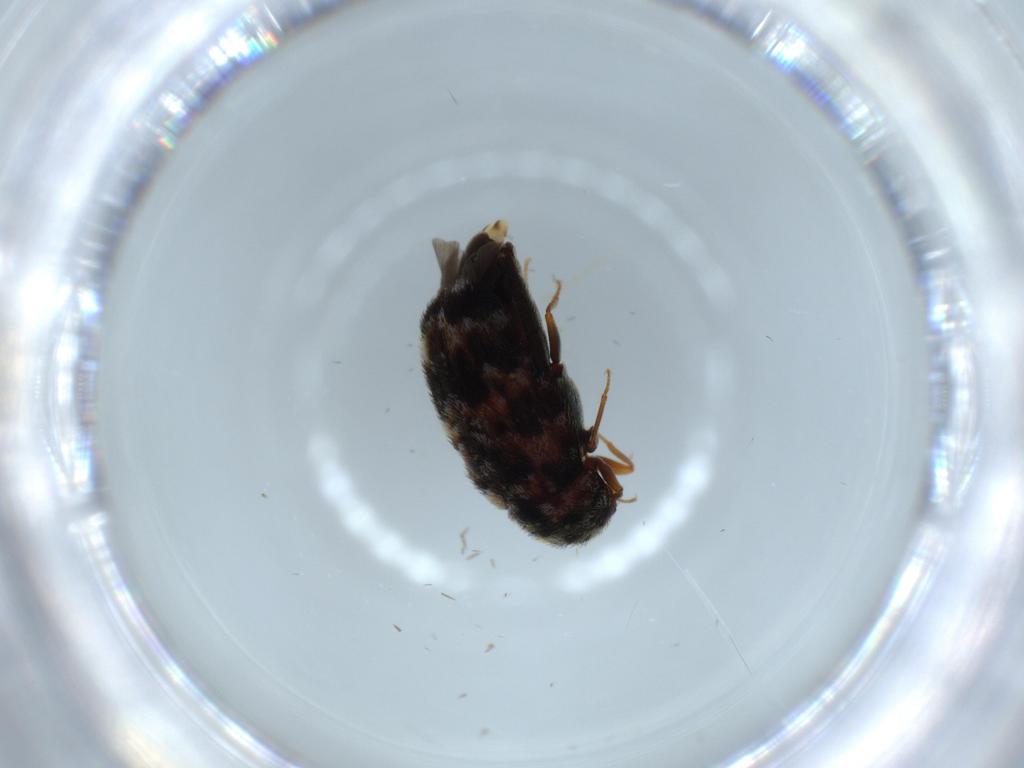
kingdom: Animalia
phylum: Arthropoda
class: Insecta
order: Coleoptera
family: Dermestidae
